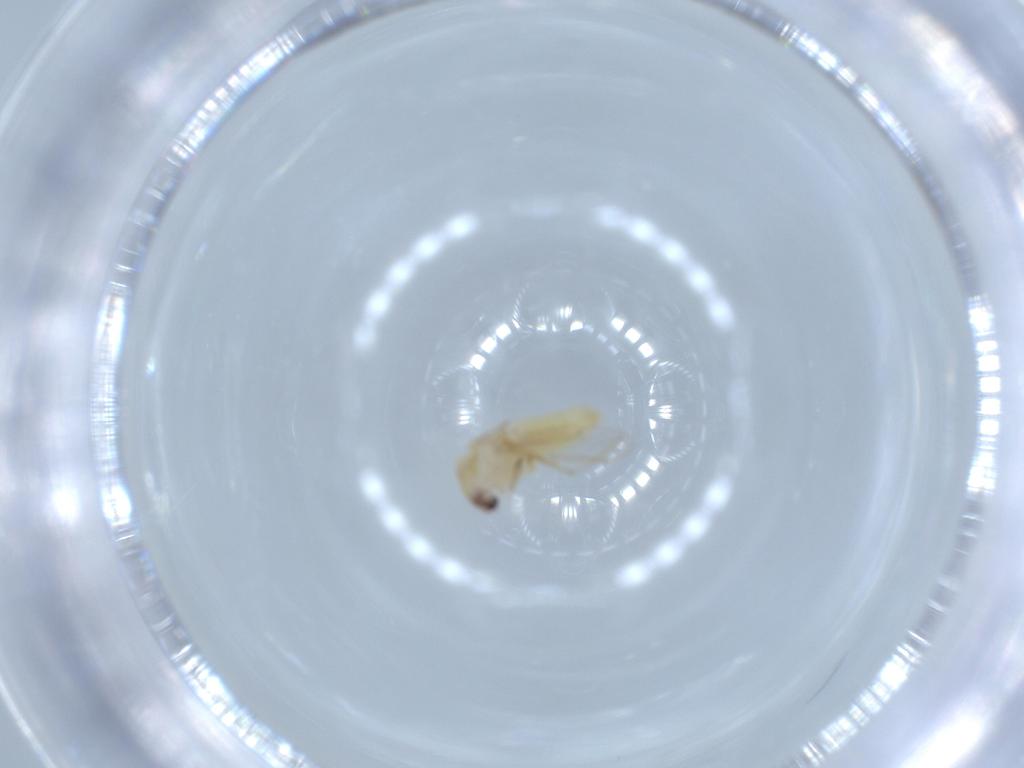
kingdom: Animalia
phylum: Arthropoda
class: Insecta
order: Diptera
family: Chironomidae
